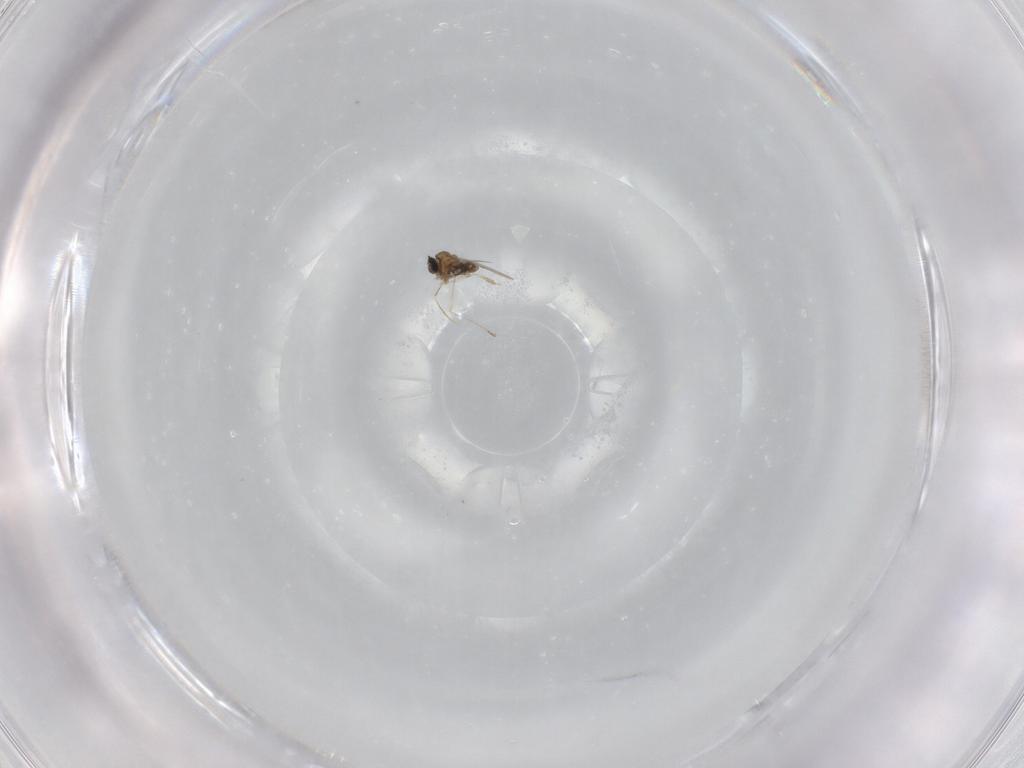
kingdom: Animalia
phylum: Arthropoda
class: Insecta
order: Diptera
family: Cecidomyiidae
